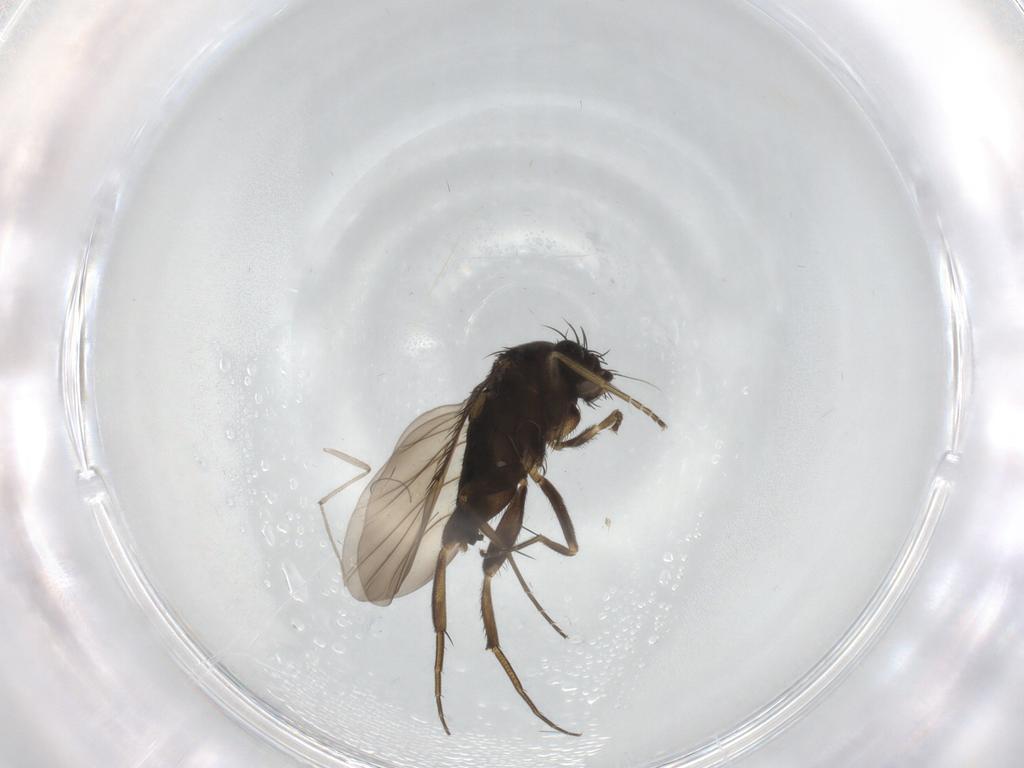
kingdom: Animalia
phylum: Arthropoda
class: Insecta
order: Diptera
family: Phoridae
